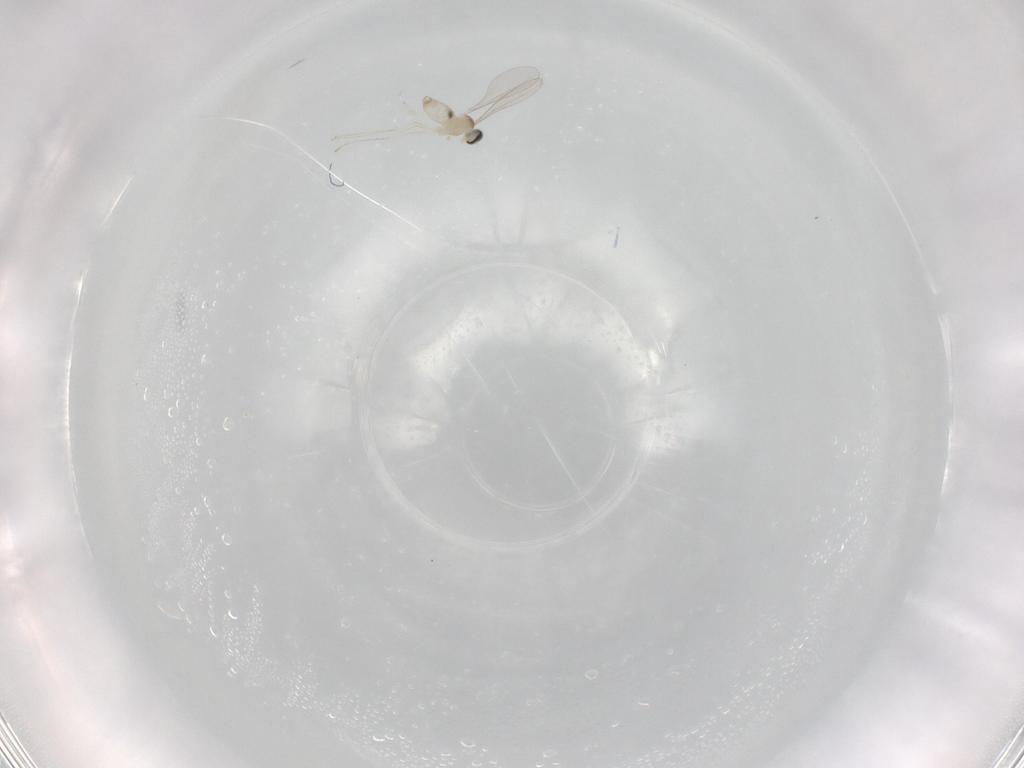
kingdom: Animalia
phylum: Arthropoda
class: Insecta
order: Diptera
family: Cecidomyiidae
